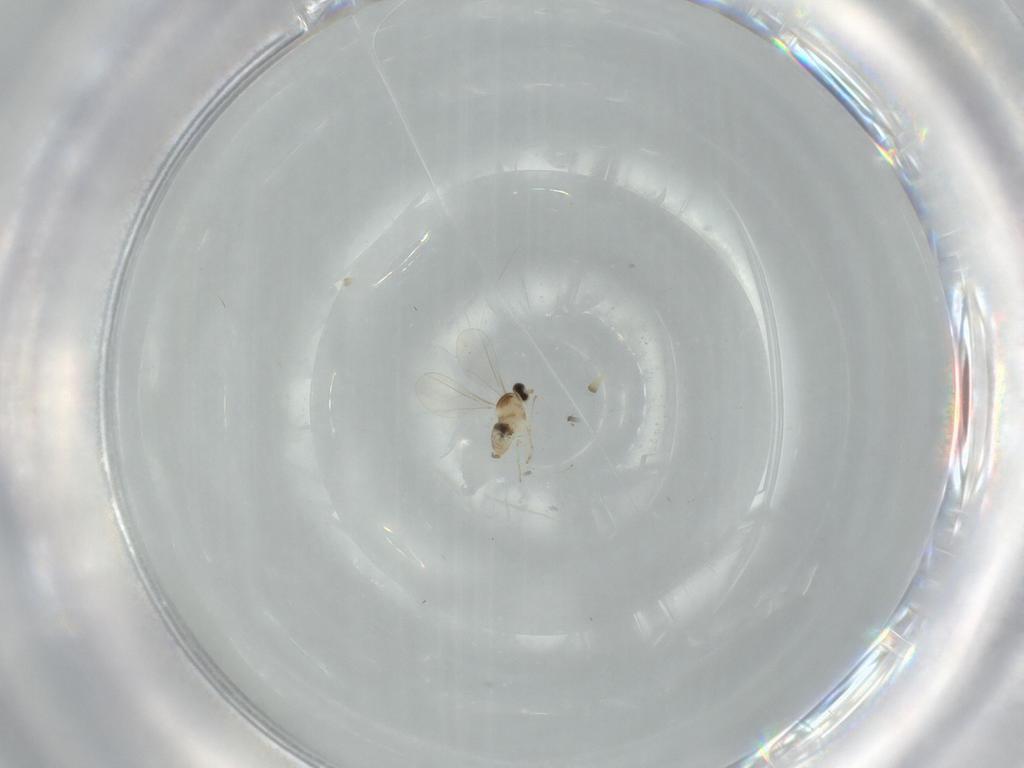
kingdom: Animalia
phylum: Arthropoda
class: Insecta
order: Diptera
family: Cecidomyiidae
